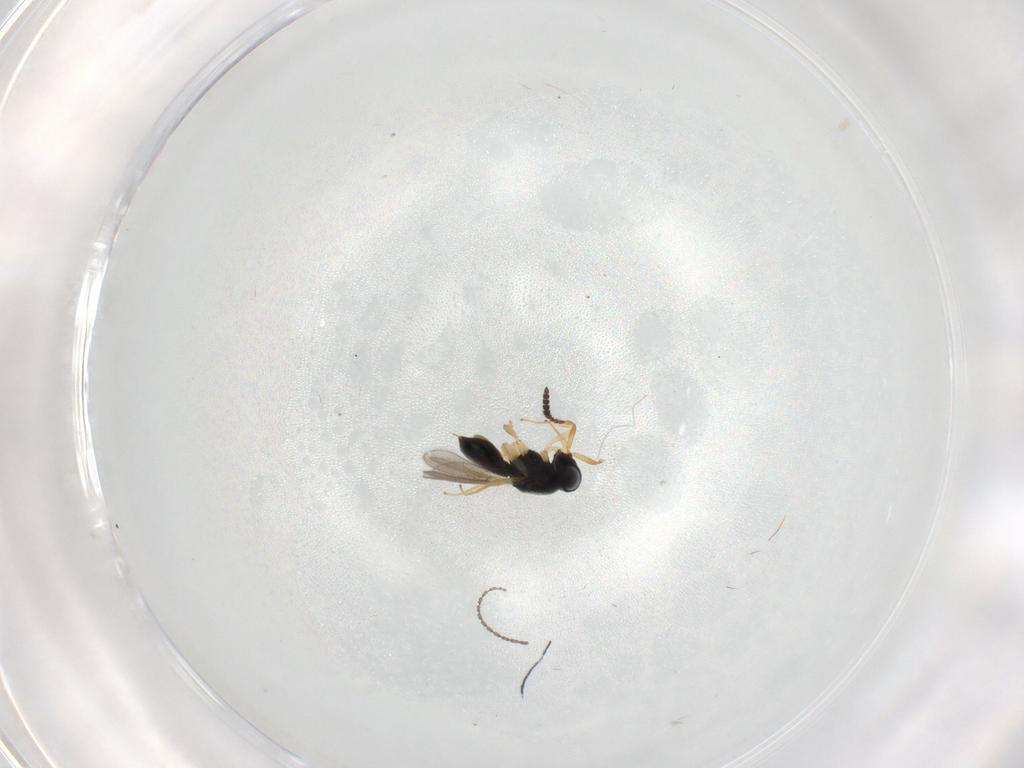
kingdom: Animalia
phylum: Arthropoda
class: Insecta
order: Hymenoptera
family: Scelionidae
